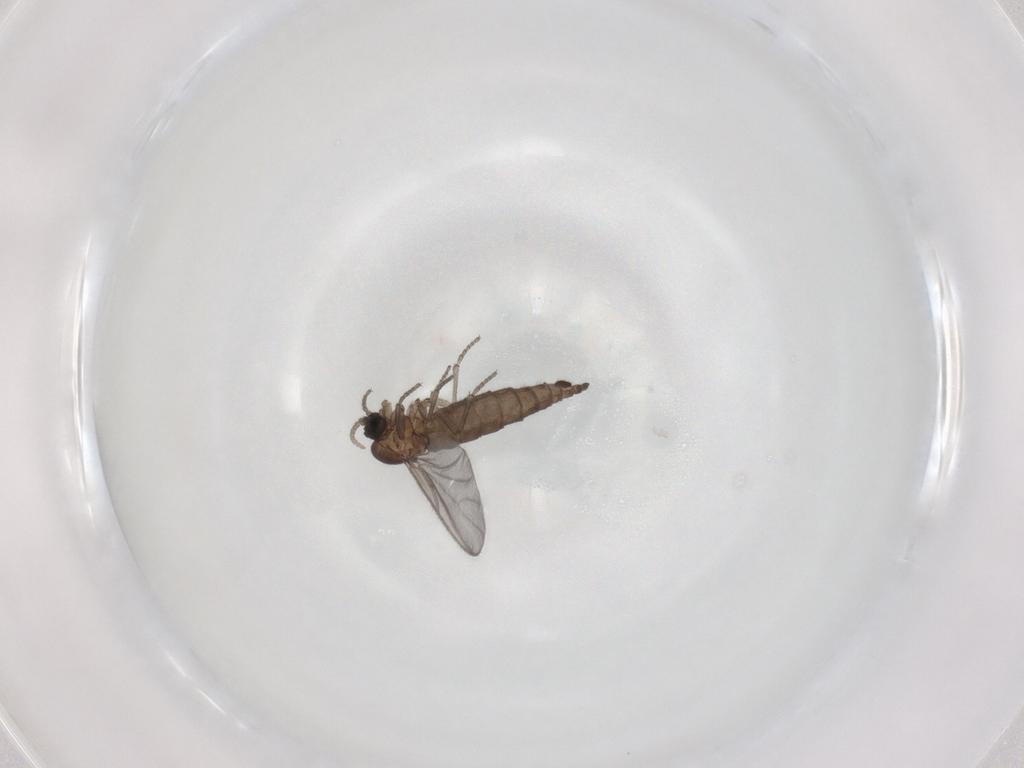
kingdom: Animalia
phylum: Arthropoda
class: Insecta
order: Diptera
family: Sciaridae
